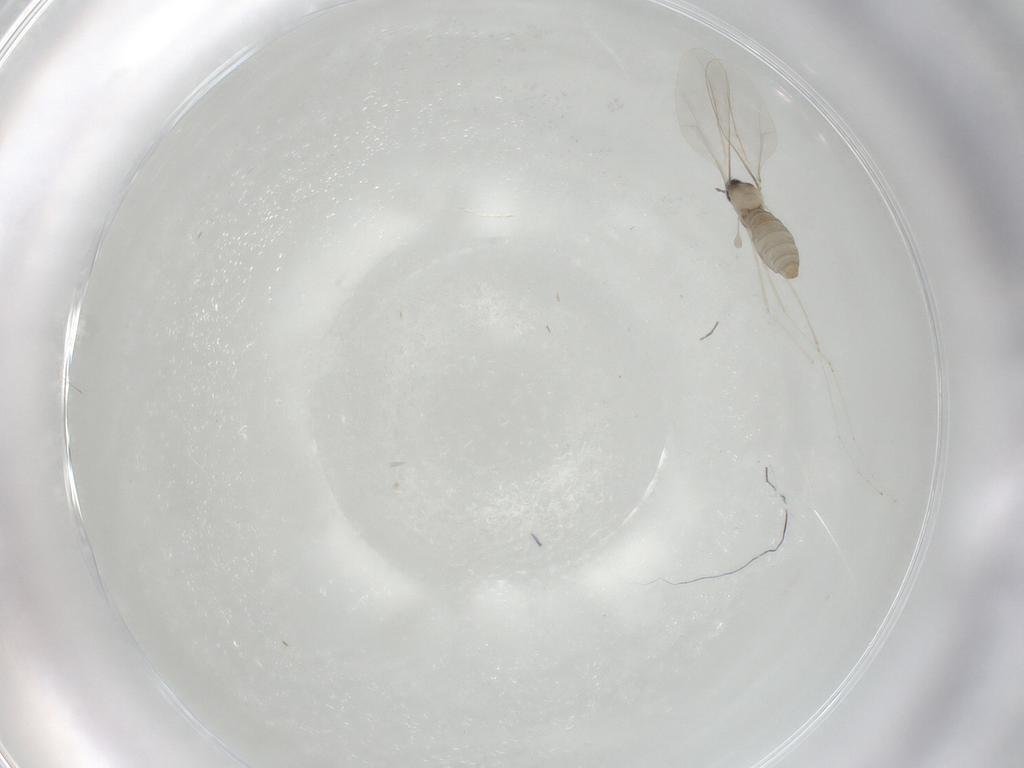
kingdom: Animalia
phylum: Arthropoda
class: Insecta
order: Diptera
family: Cecidomyiidae
